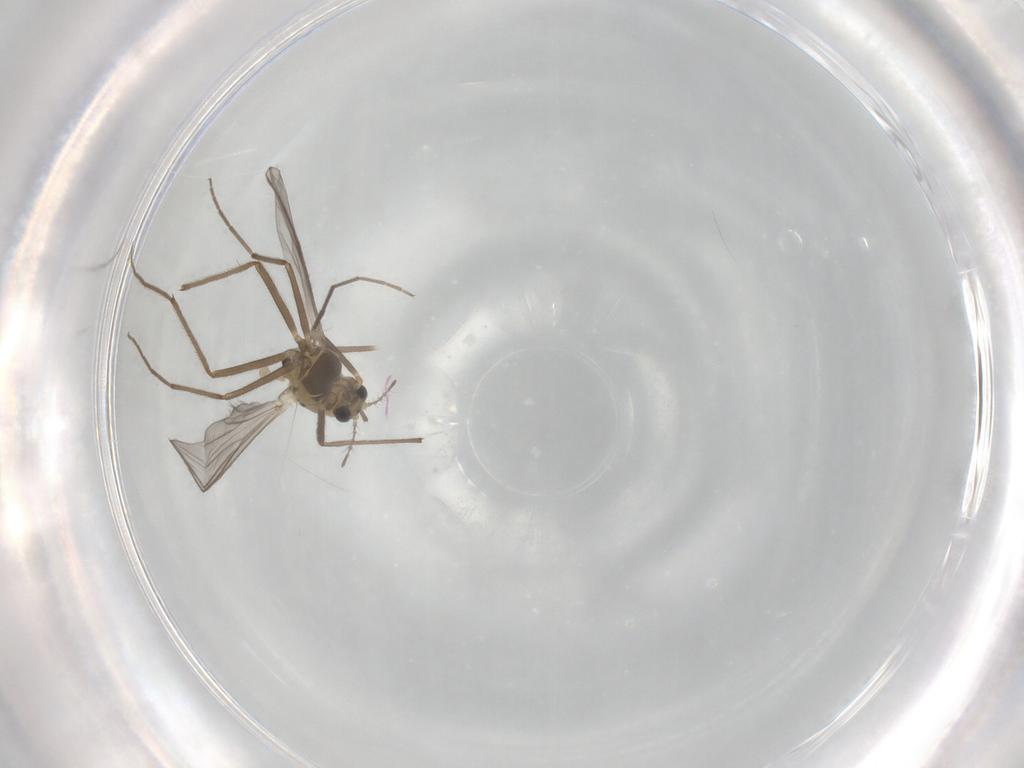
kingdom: Animalia
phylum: Arthropoda
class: Insecta
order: Diptera
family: Chironomidae
